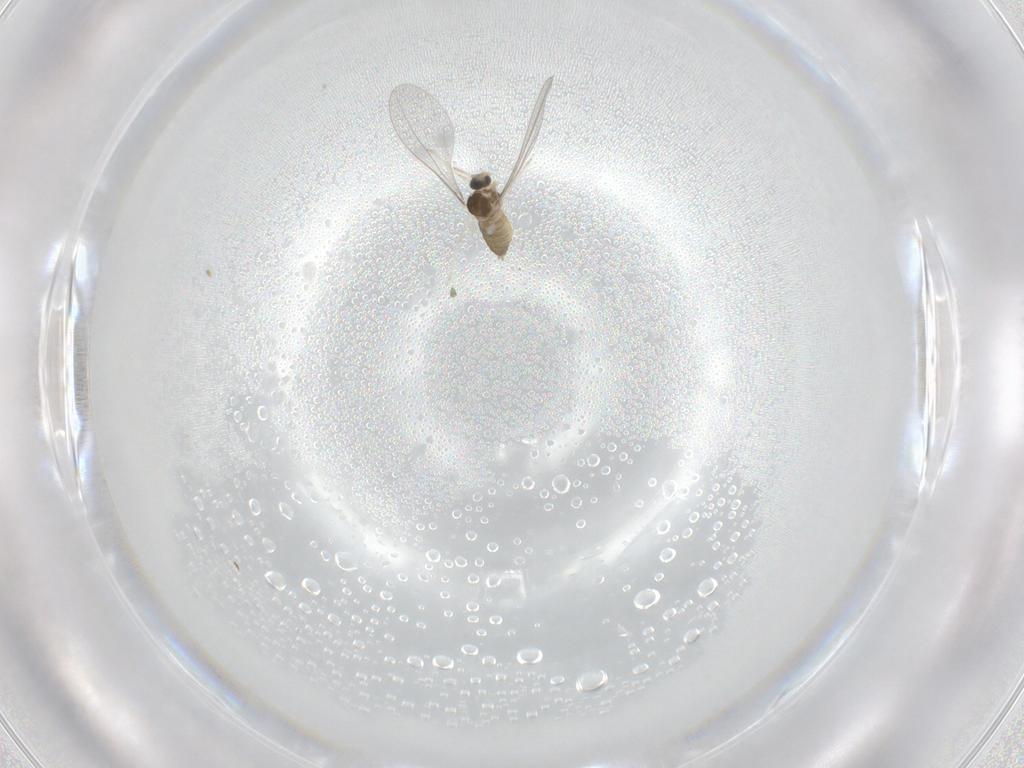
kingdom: Animalia
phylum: Arthropoda
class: Insecta
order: Diptera
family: Cecidomyiidae
